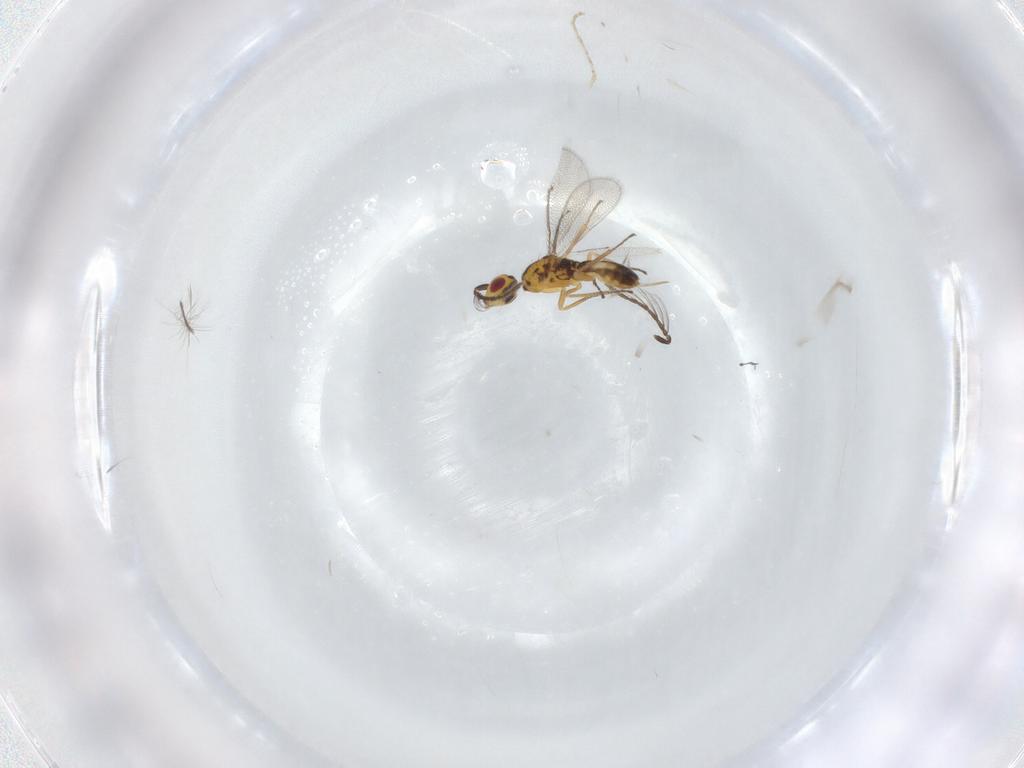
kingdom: Animalia
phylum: Arthropoda
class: Insecta
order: Hymenoptera
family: Eulophidae
